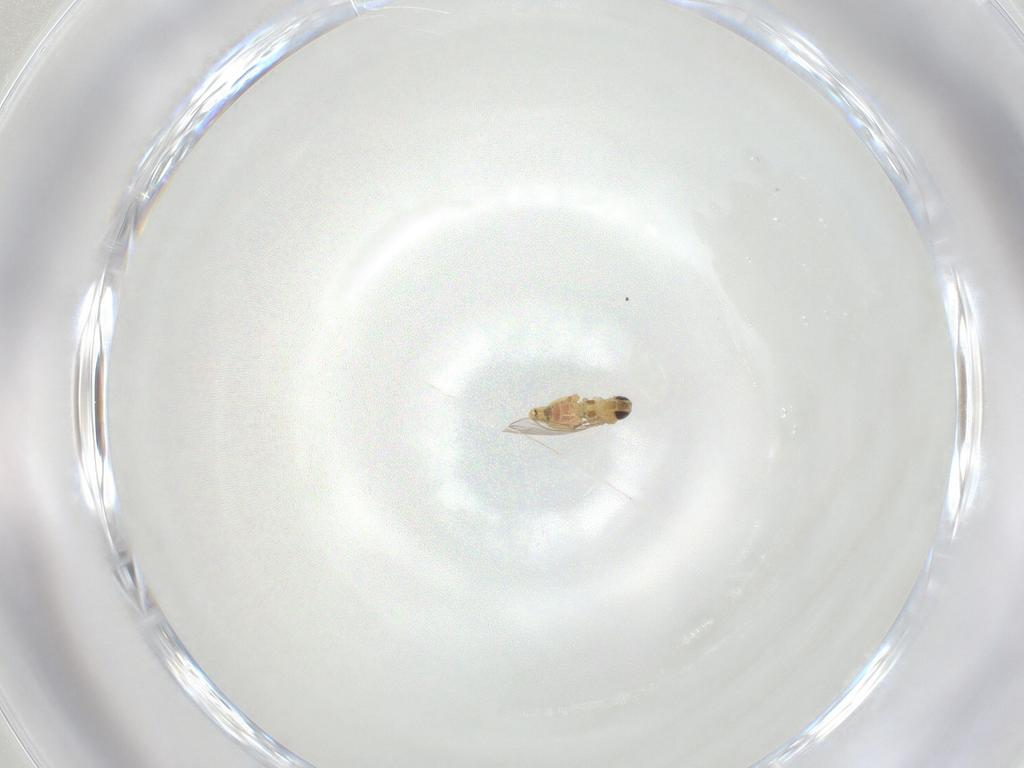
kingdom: Animalia
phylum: Arthropoda
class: Insecta
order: Diptera
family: Agromyzidae
